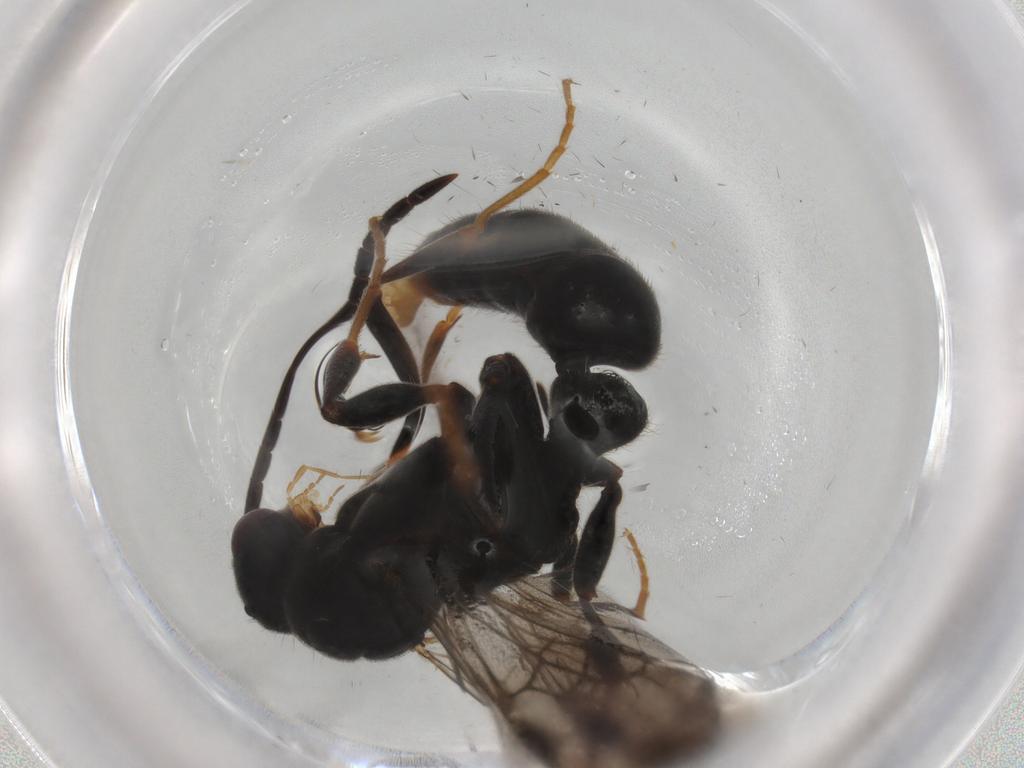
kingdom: Animalia
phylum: Arthropoda
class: Insecta
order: Hymenoptera
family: Formicidae
